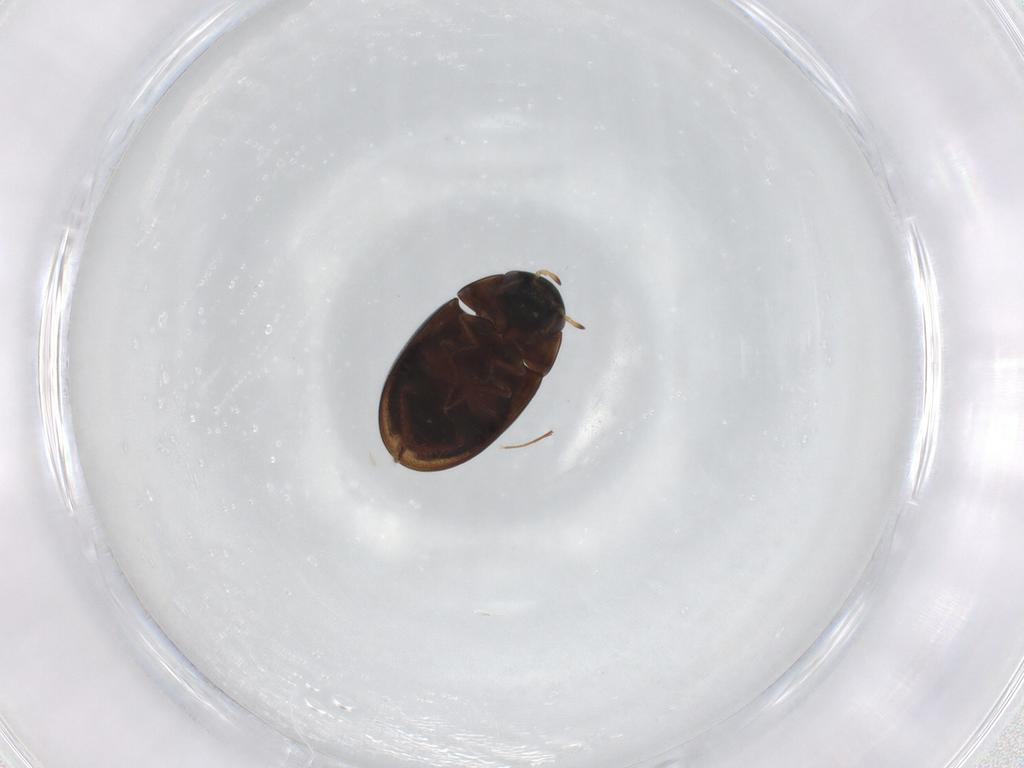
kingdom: Animalia
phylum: Arthropoda
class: Insecta
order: Coleoptera
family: Hydrophilidae
